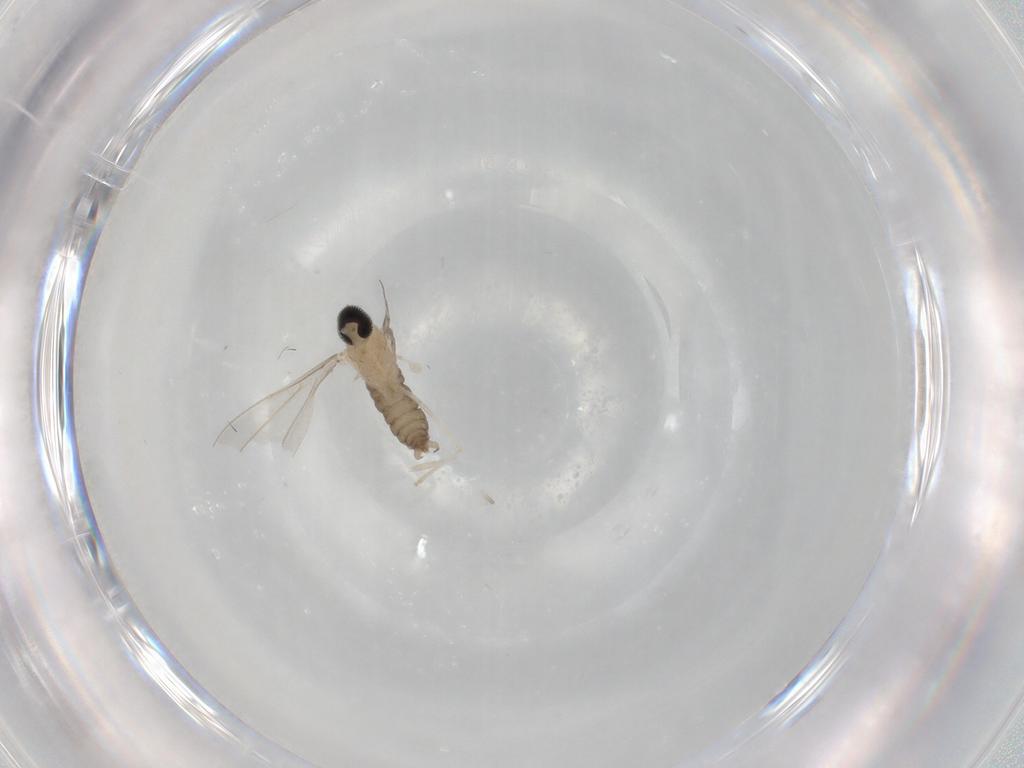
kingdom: Animalia
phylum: Arthropoda
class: Insecta
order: Diptera
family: Cecidomyiidae
